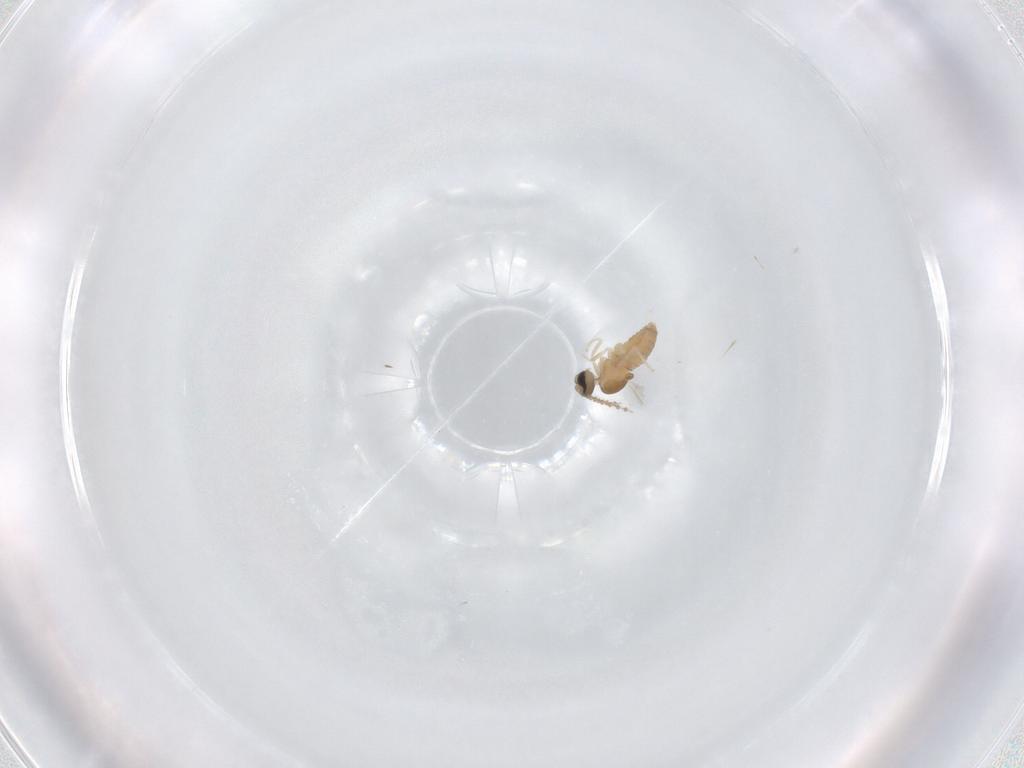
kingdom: Animalia
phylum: Arthropoda
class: Insecta
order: Diptera
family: Cecidomyiidae
